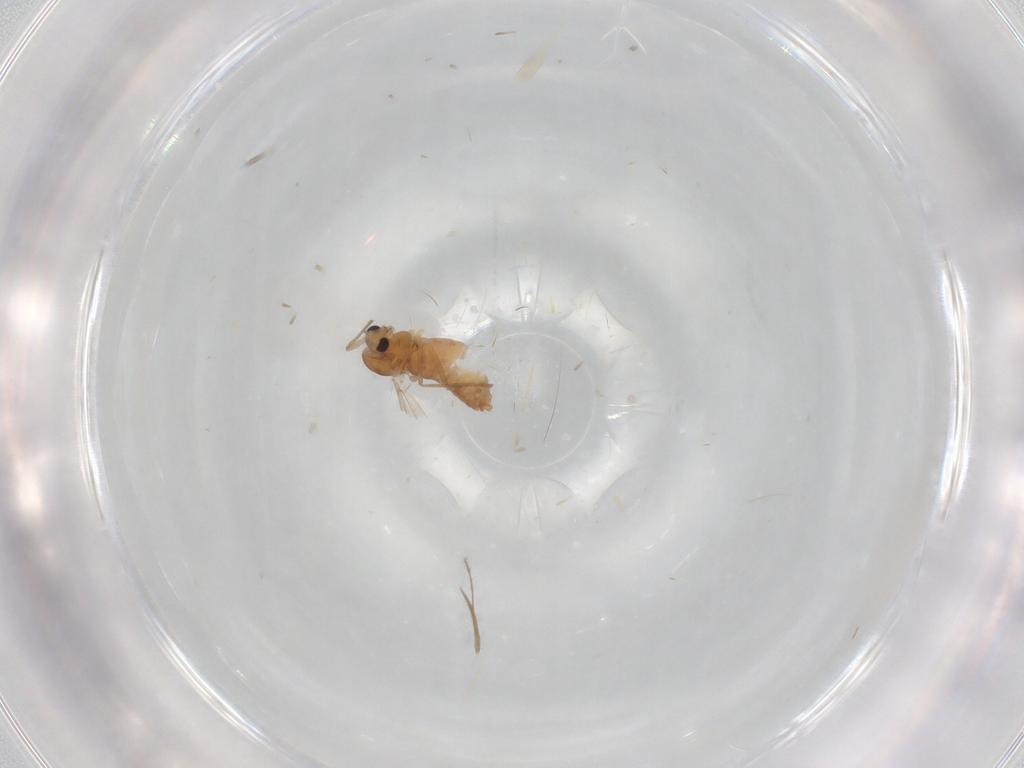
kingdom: Animalia
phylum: Arthropoda
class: Insecta
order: Diptera
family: Chironomidae
